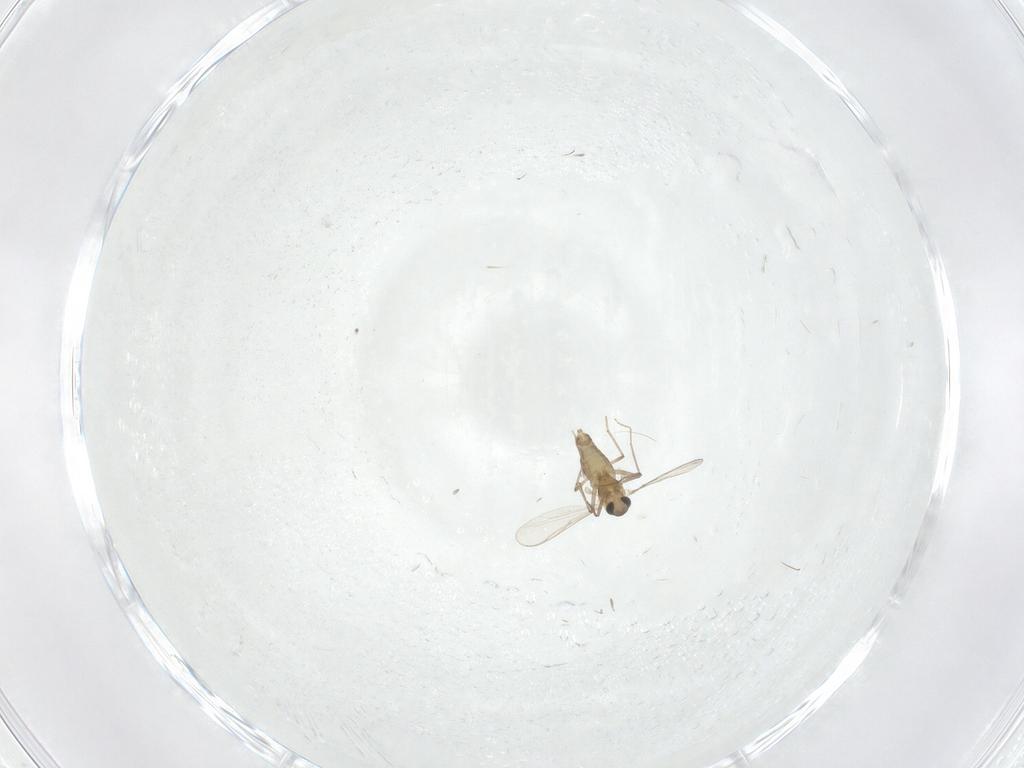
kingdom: Animalia
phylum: Arthropoda
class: Insecta
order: Diptera
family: Chironomidae
